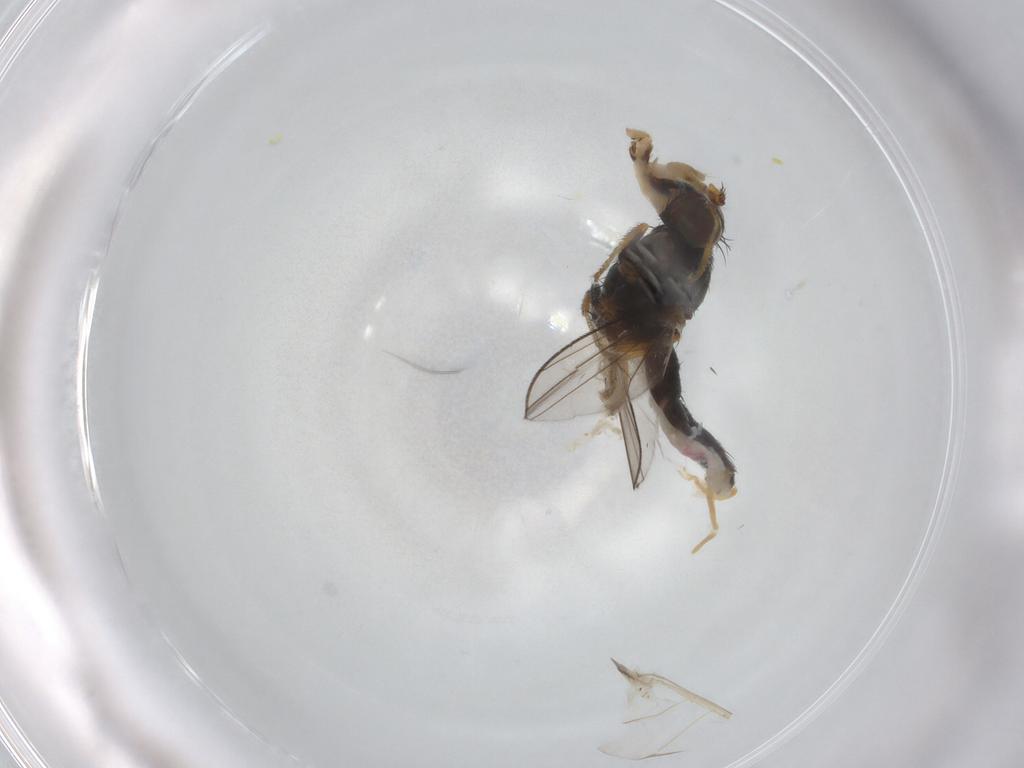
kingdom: Animalia
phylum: Arthropoda
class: Insecta
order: Diptera
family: Ephydridae
